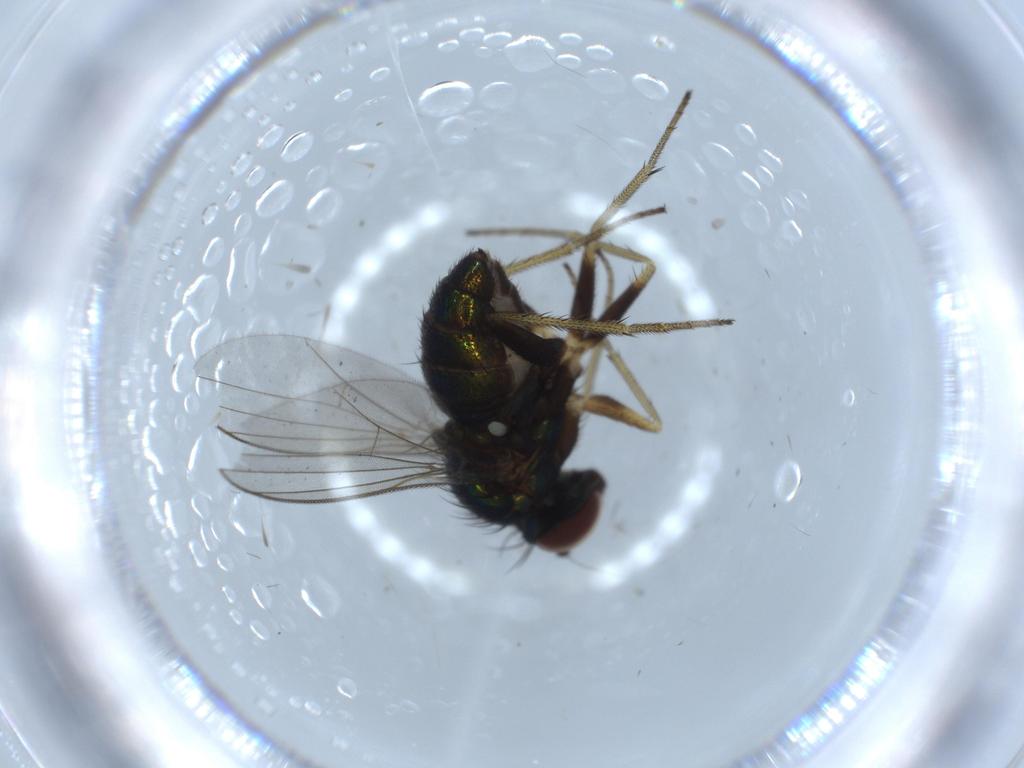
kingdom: Animalia
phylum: Arthropoda
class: Insecta
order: Diptera
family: Dolichopodidae
